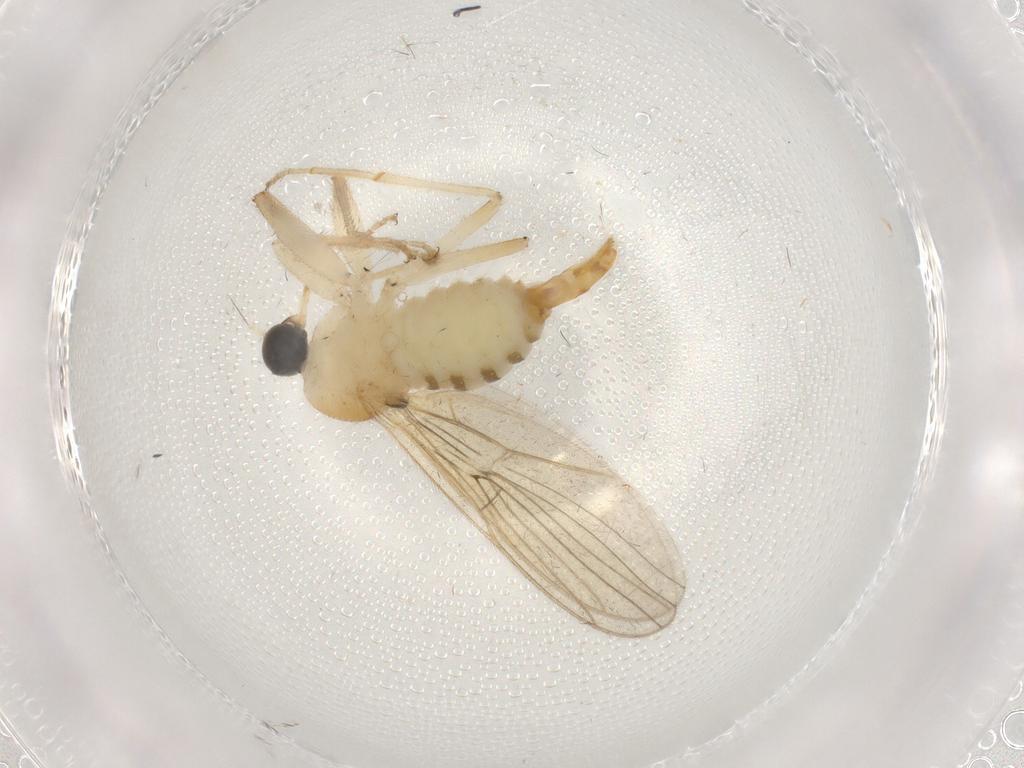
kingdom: Animalia
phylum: Arthropoda
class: Insecta
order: Diptera
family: Hybotidae
